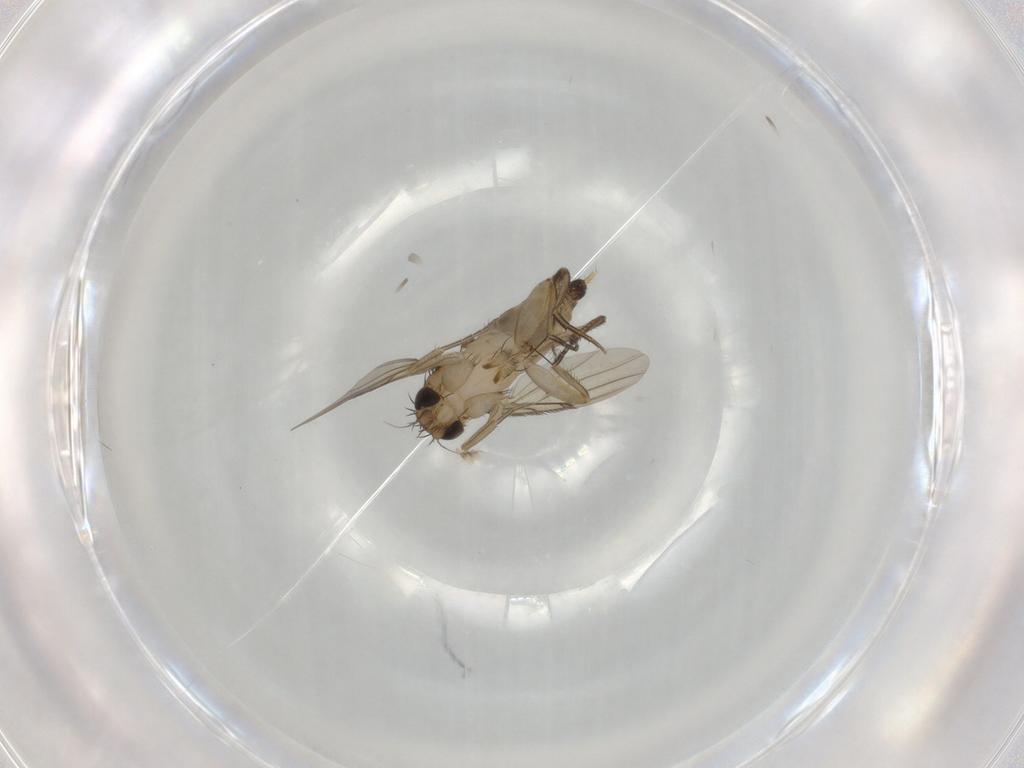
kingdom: Animalia
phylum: Arthropoda
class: Insecta
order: Diptera
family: Phoridae
